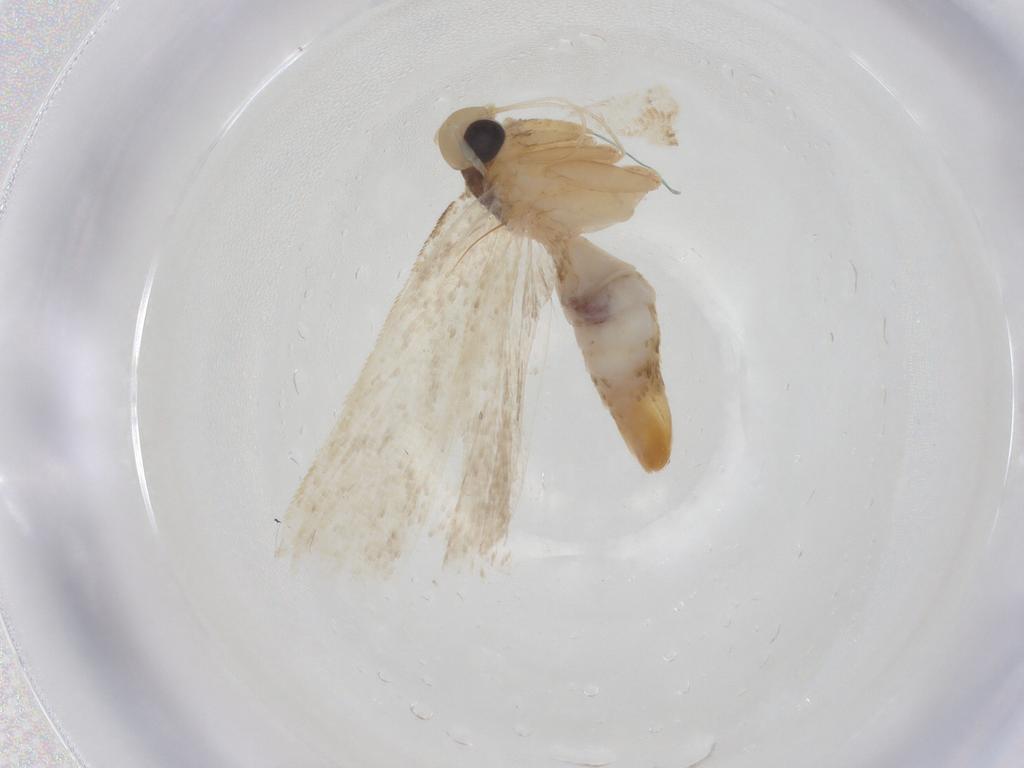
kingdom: Animalia
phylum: Arthropoda
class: Insecta
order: Lepidoptera
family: Gelechiidae
